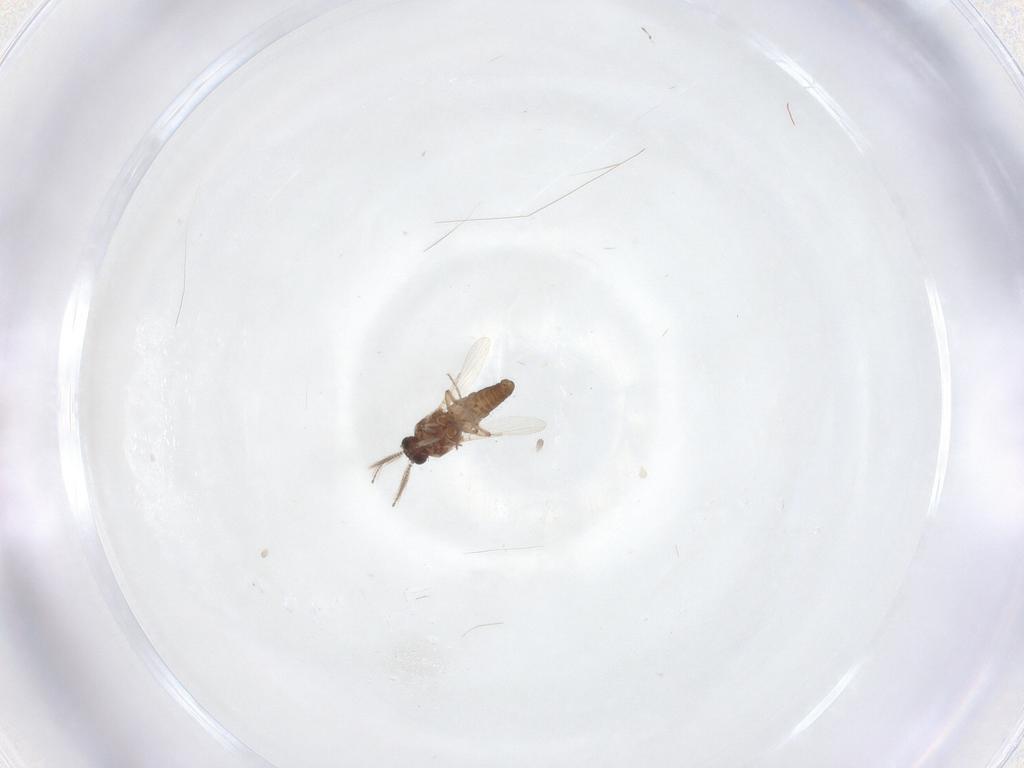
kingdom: Animalia
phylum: Arthropoda
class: Insecta
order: Diptera
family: Ceratopogonidae
